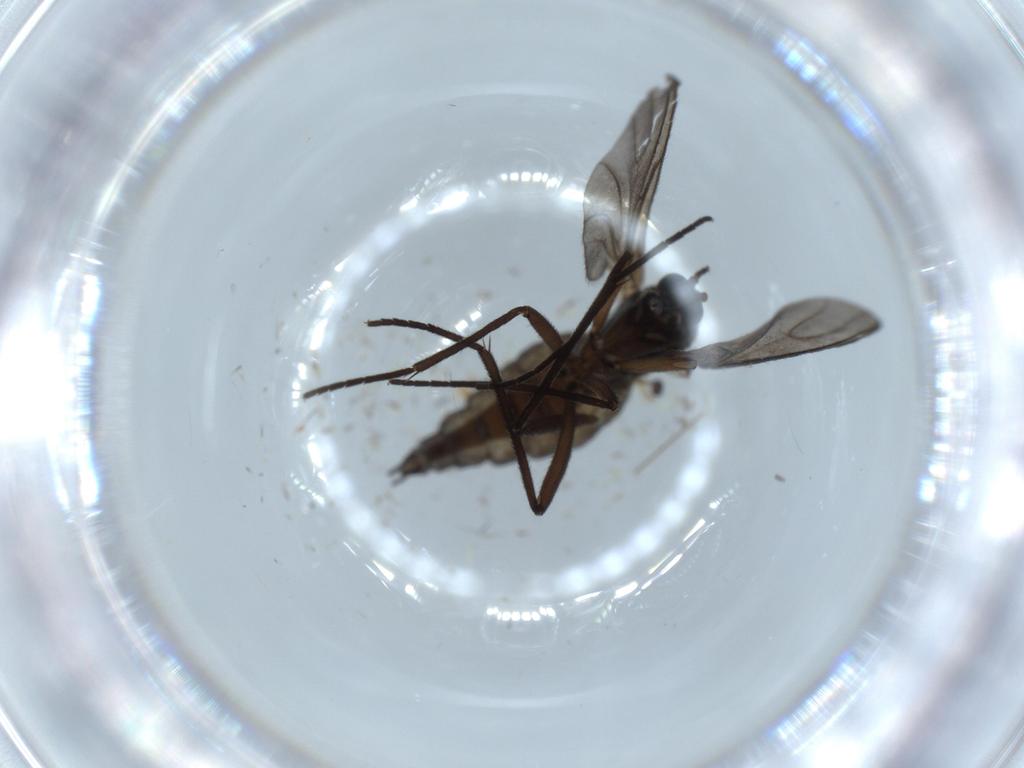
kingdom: Animalia
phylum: Arthropoda
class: Insecta
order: Diptera
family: Sciaridae
